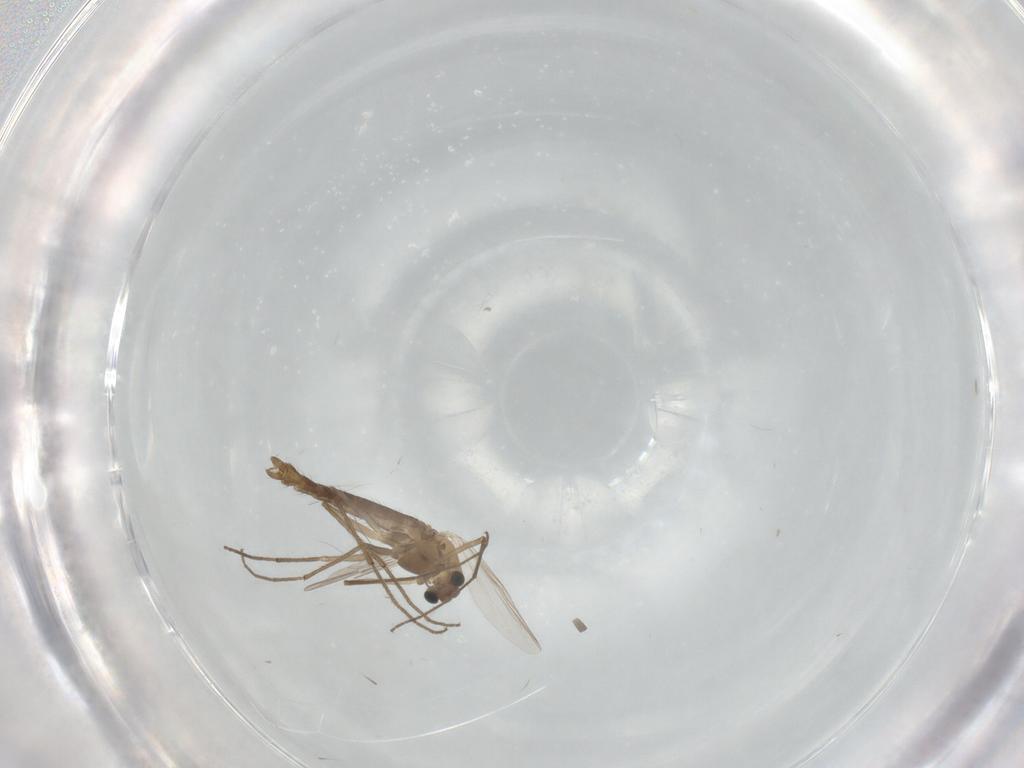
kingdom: Animalia
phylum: Arthropoda
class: Insecta
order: Diptera
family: Chironomidae
